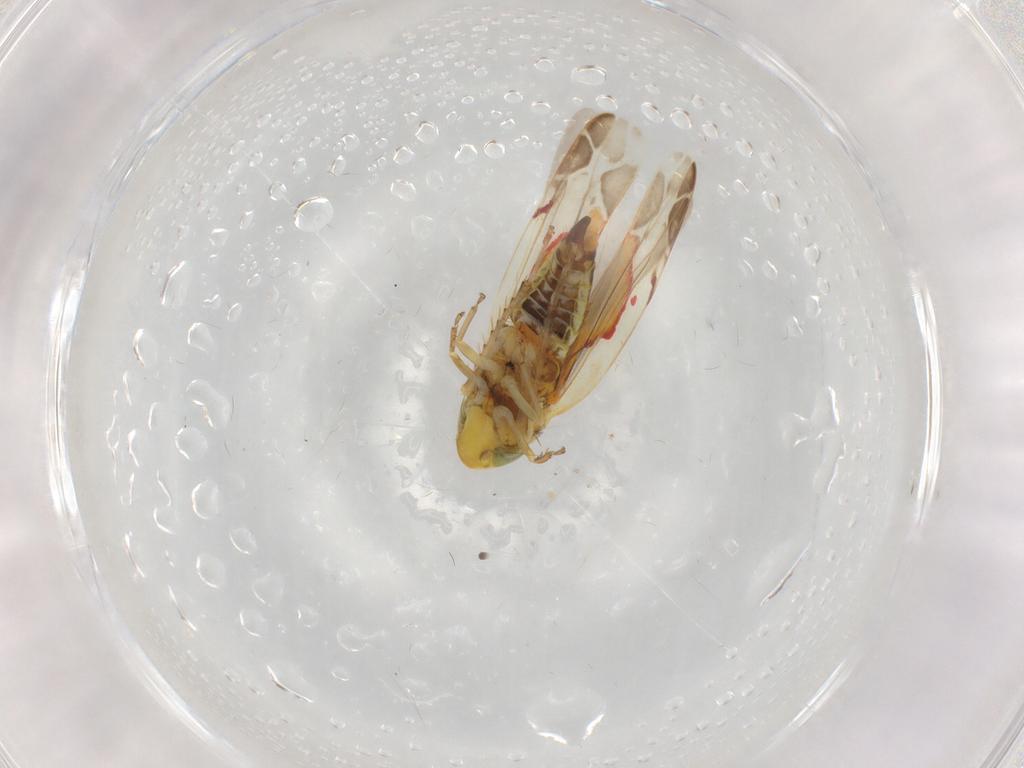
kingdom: Animalia
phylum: Arthropoda
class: Insecta
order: Hemiptera
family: Cicadellidae
